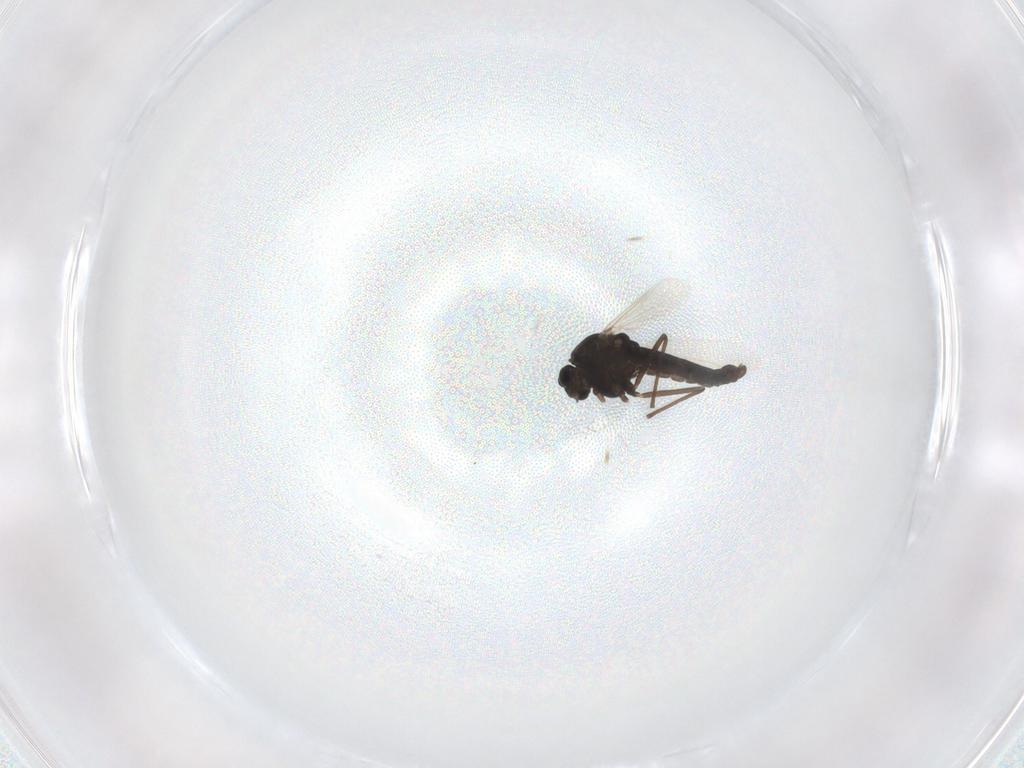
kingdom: Animalia
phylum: Arthropoda
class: Insecta
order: Diptera
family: Chironomidae
